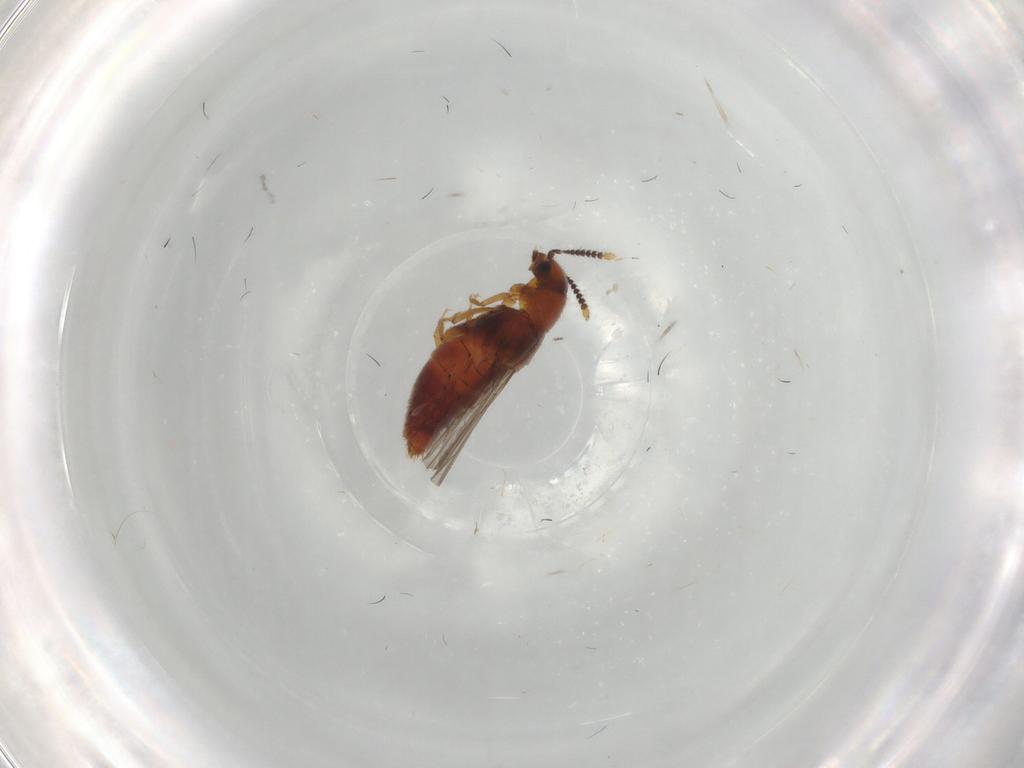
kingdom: Animalia
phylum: Arthropoda
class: Insecta
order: Coleoptera
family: Staphylinidae
